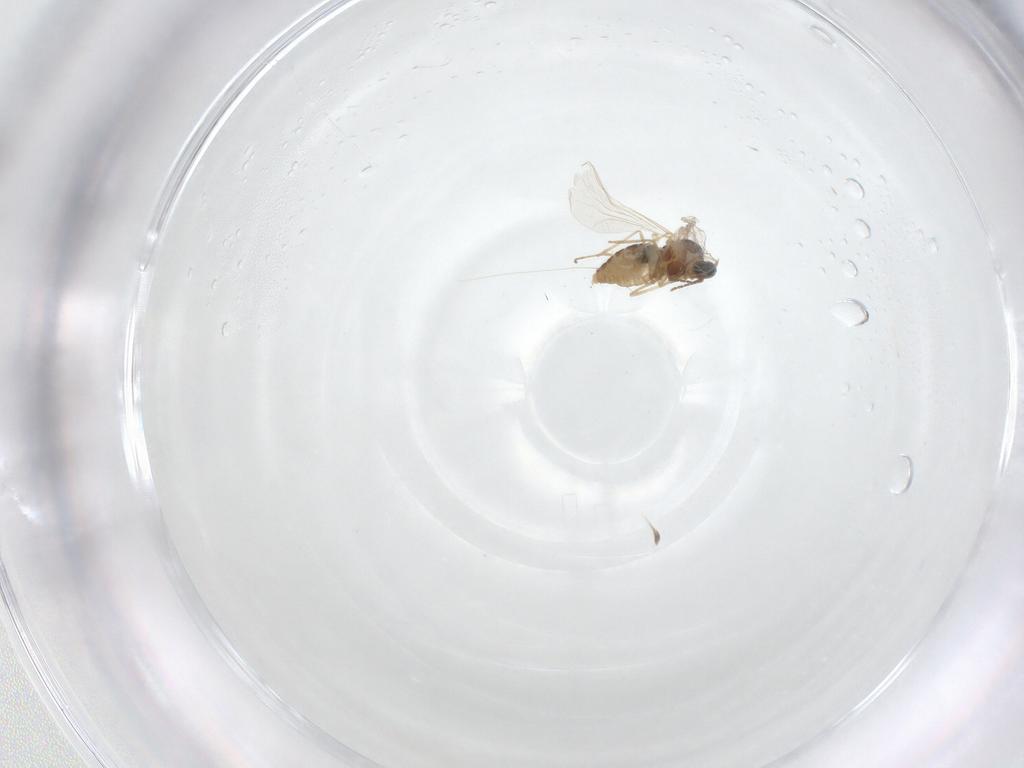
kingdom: Animalia
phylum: Arthropoda
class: Insecta
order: Diptera
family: Cecidomyiidae
